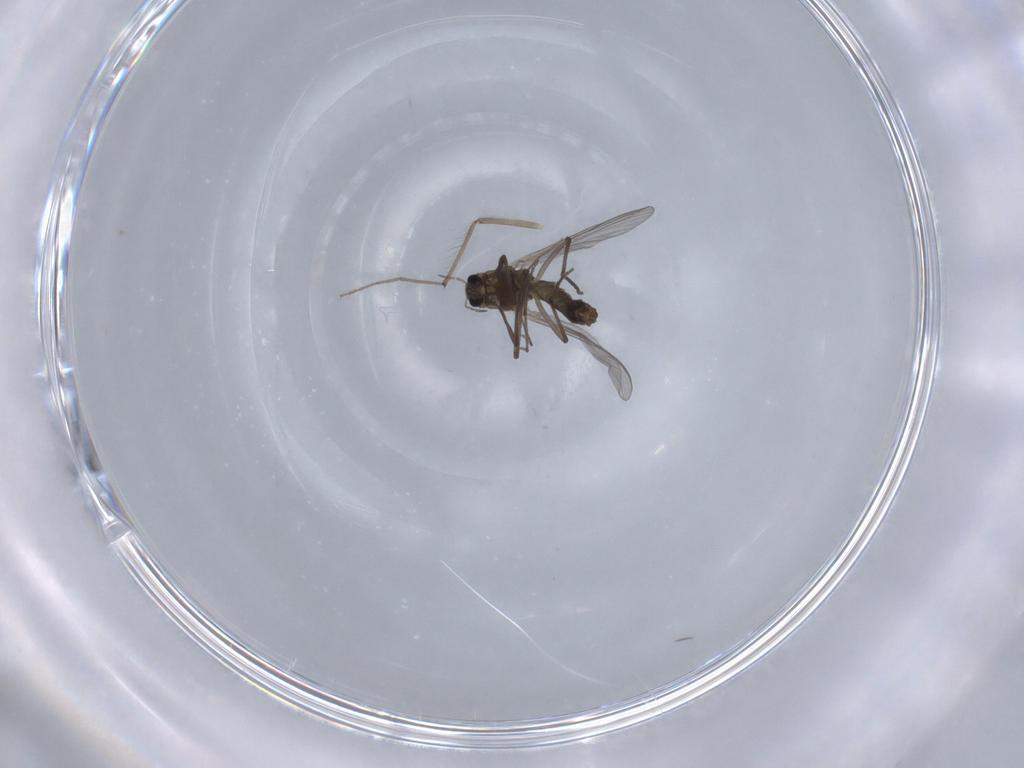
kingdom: Animalia
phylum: Arthropoda
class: Insecta
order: Diptera
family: Chironomidae
